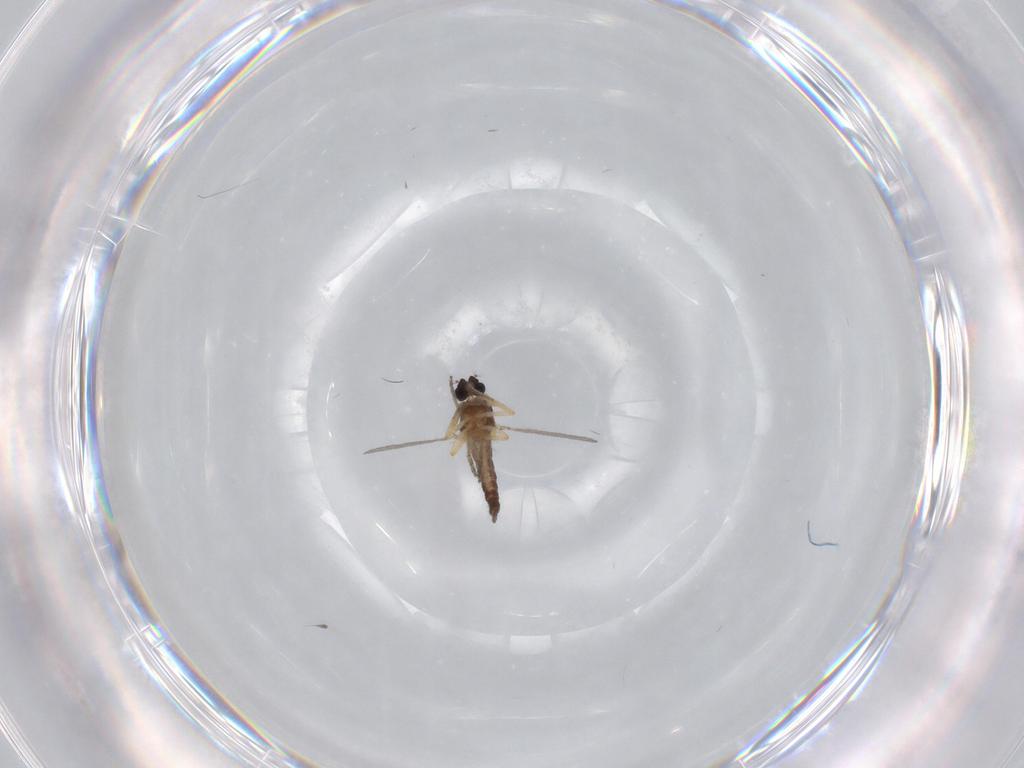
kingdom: Animalia
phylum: Arthropoda
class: Insecta
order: Diptera
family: Ceratopogonidae
